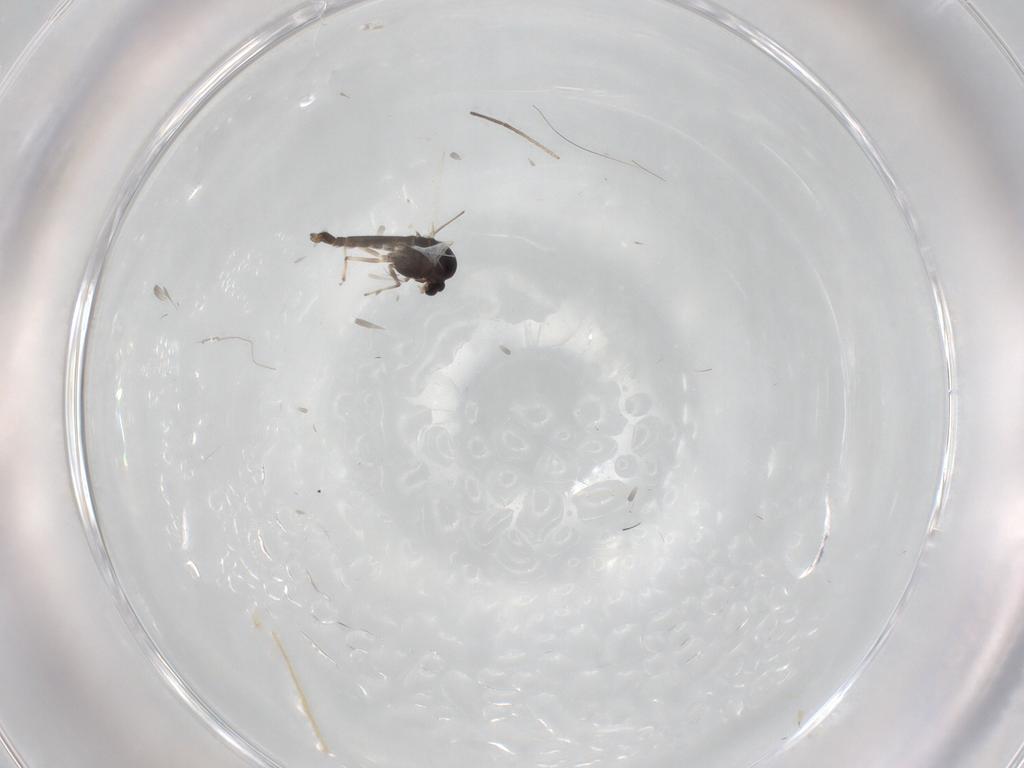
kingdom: Animalia
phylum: Arthropoda
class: Insecta
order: Diptera
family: Chironomidae
